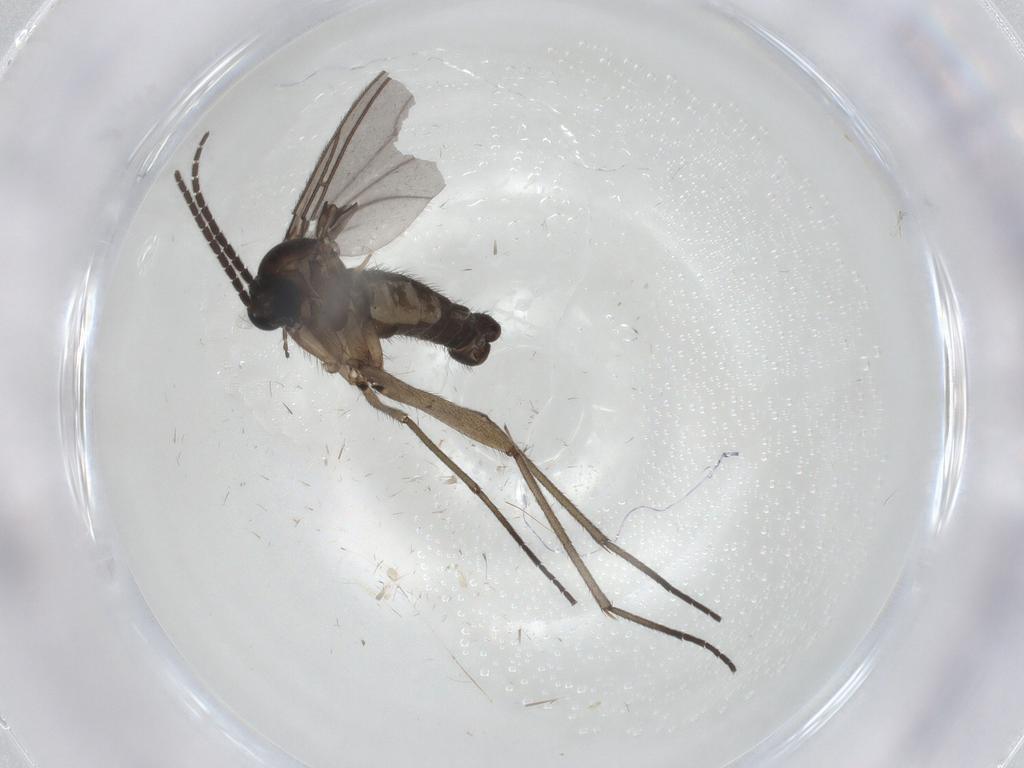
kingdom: Animalia
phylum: Arthropoda
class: Insecta
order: Diptera
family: Sciaridae
